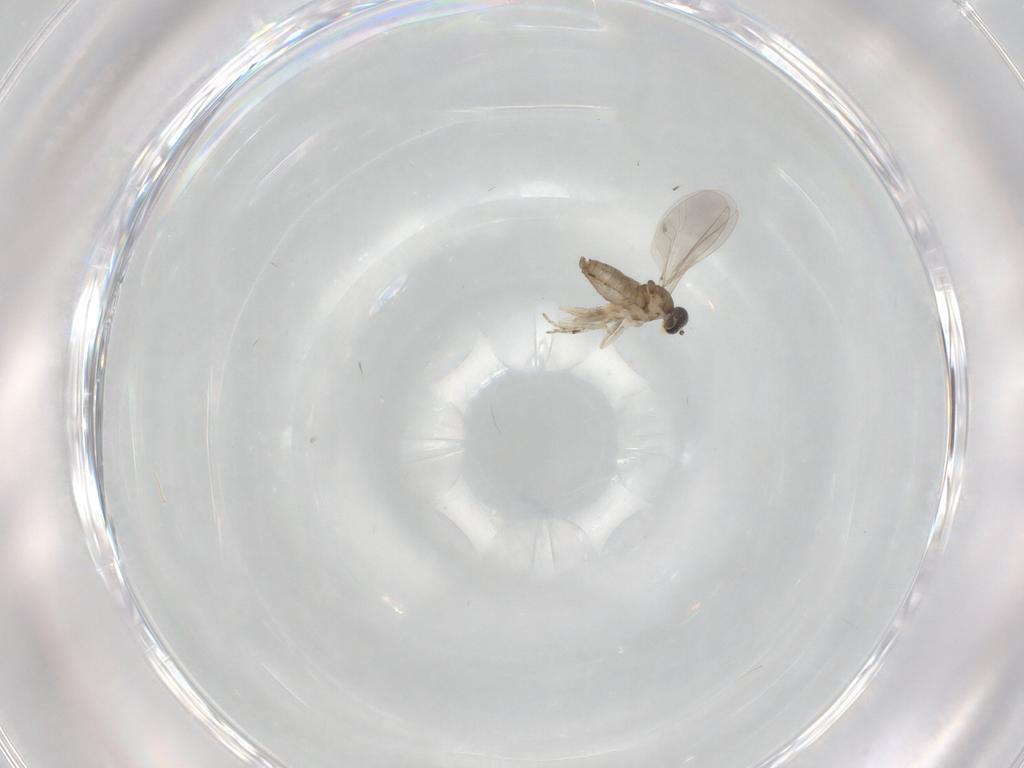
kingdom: Animalia
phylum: Arthropoda
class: Insecta
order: Diptera
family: Cecidomyiidae
